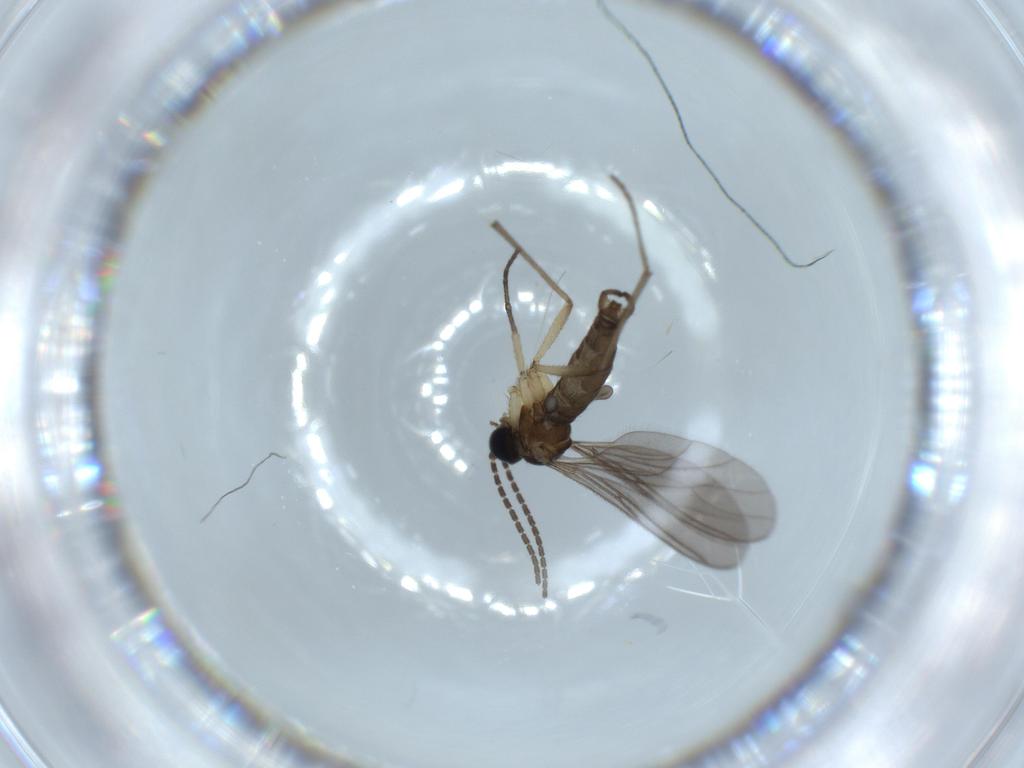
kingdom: Animalia
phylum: Arthropoda
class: Insecta
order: Diptera
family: Sciaridae
